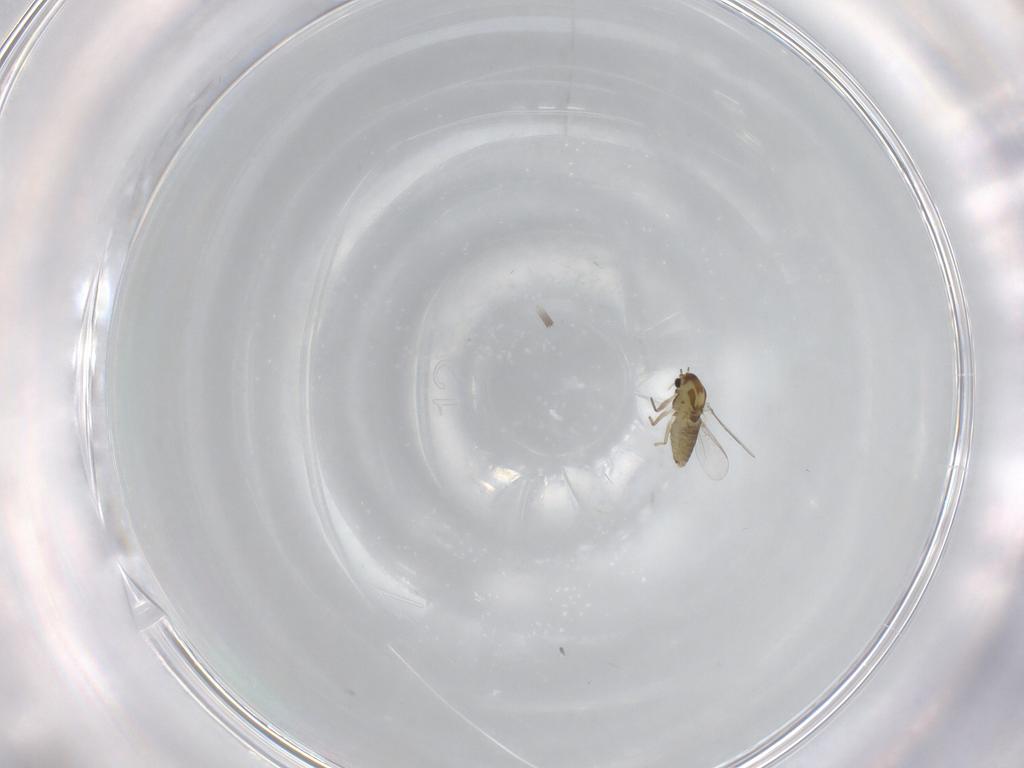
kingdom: Animalia
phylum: Arthropoda
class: Insecta
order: Diptera
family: Chironomidae
